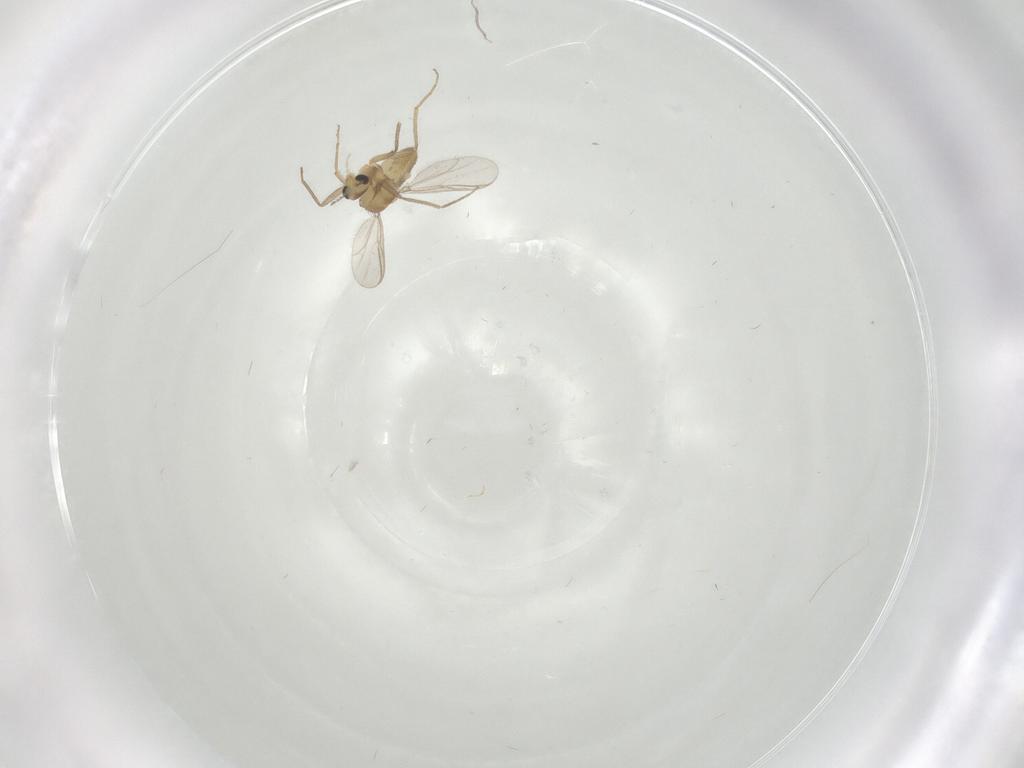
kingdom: Animalia
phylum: Arthropoda
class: Insecta
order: Diptera
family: Chironomidae
